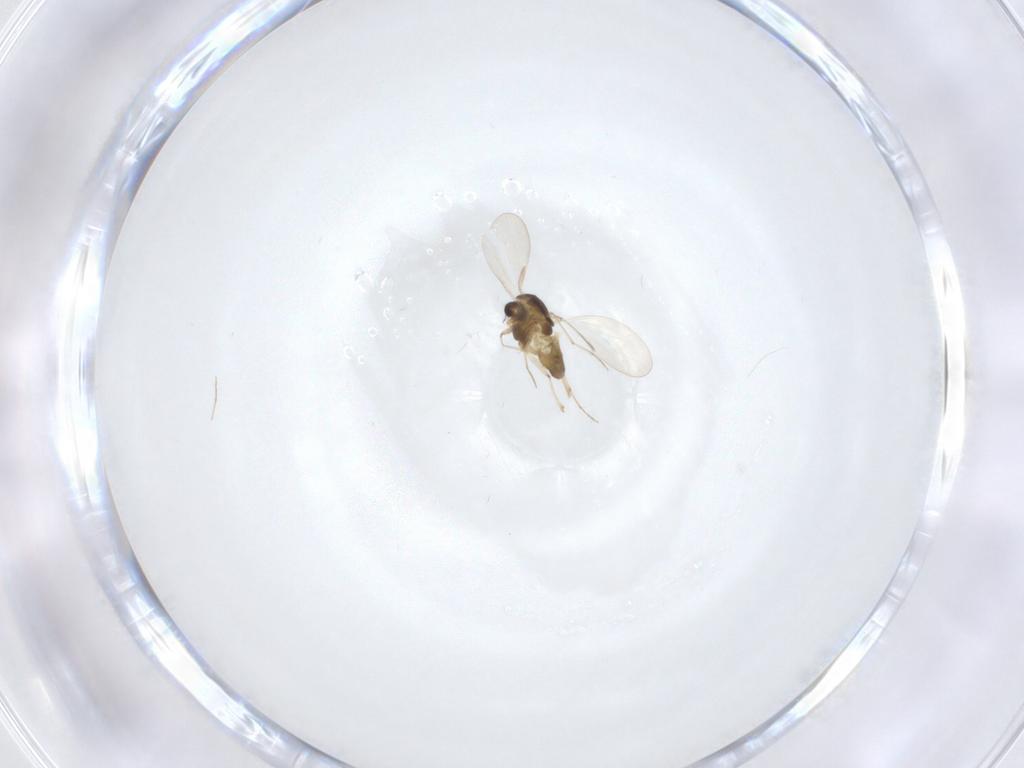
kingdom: Animalia
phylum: Arthropoda
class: Insecta
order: Diptera
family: Chironomidae
